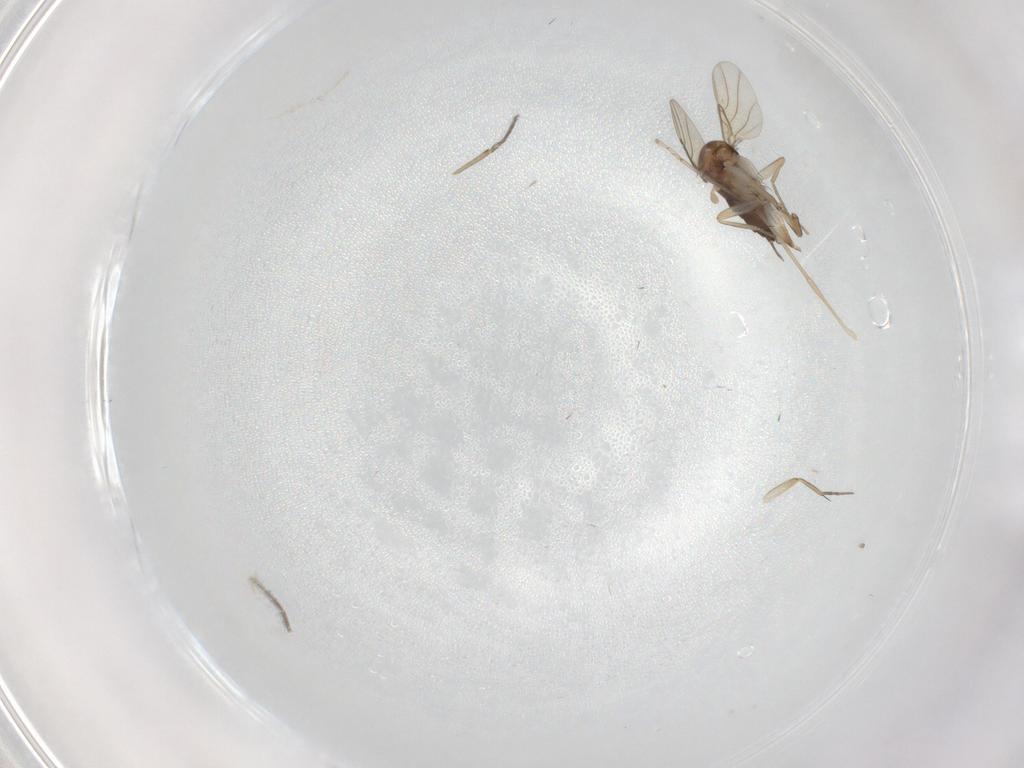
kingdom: Animalia
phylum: Arthropoda
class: Insecta
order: Diptera
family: Phoridae
